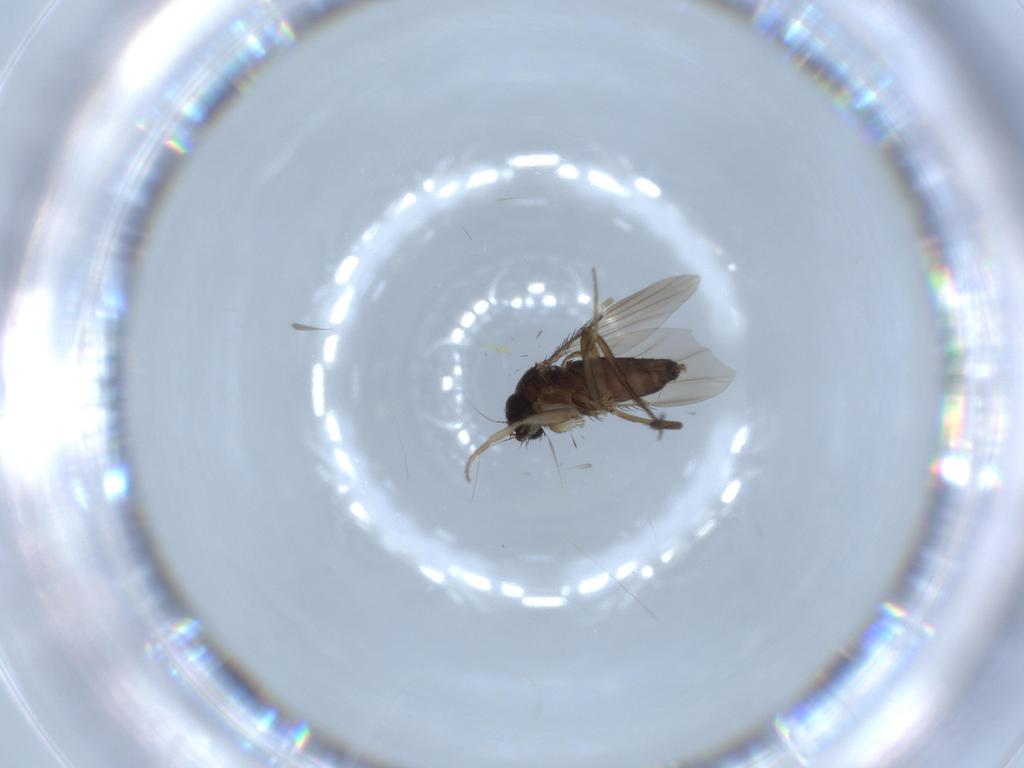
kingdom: Animalia
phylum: Arthropoda
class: Insecta
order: Diptera
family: Phoridae
